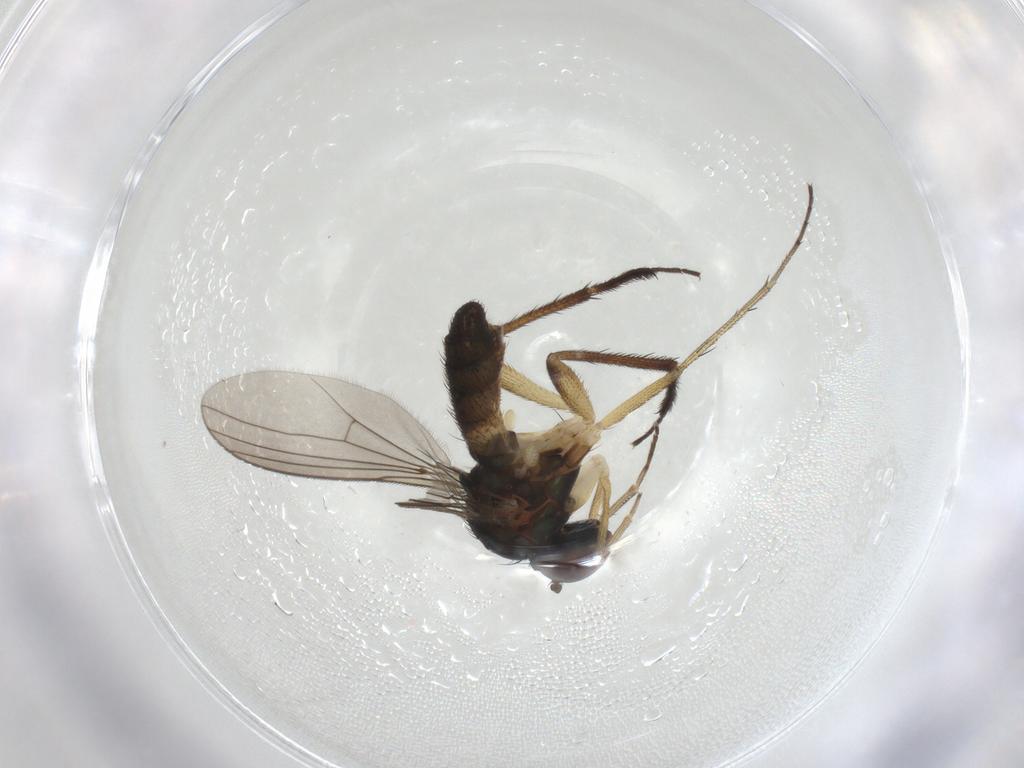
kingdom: Animalia
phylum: Arthropoda
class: Insecta
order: Diptera
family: Dolichopodidae
